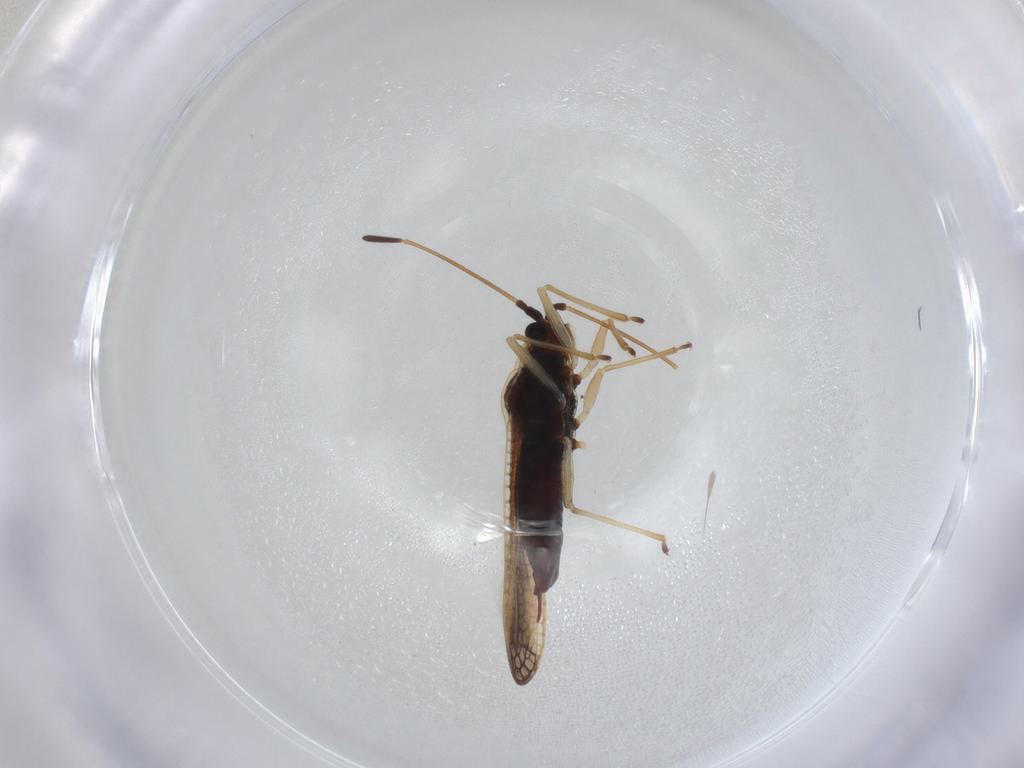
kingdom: Animalia
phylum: Arthropoda
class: Insecta
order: Hemiptera
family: Tingidae
